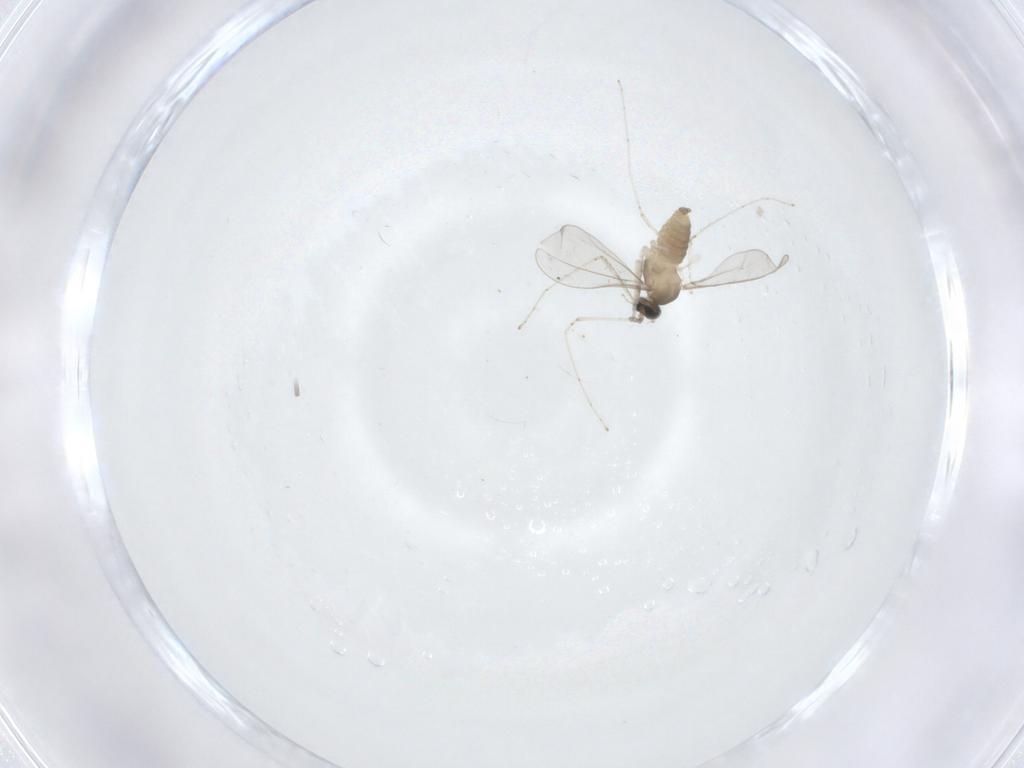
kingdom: Animalia
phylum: Arthropoda
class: Insecta
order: Diptera
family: Cecidomyiidae
